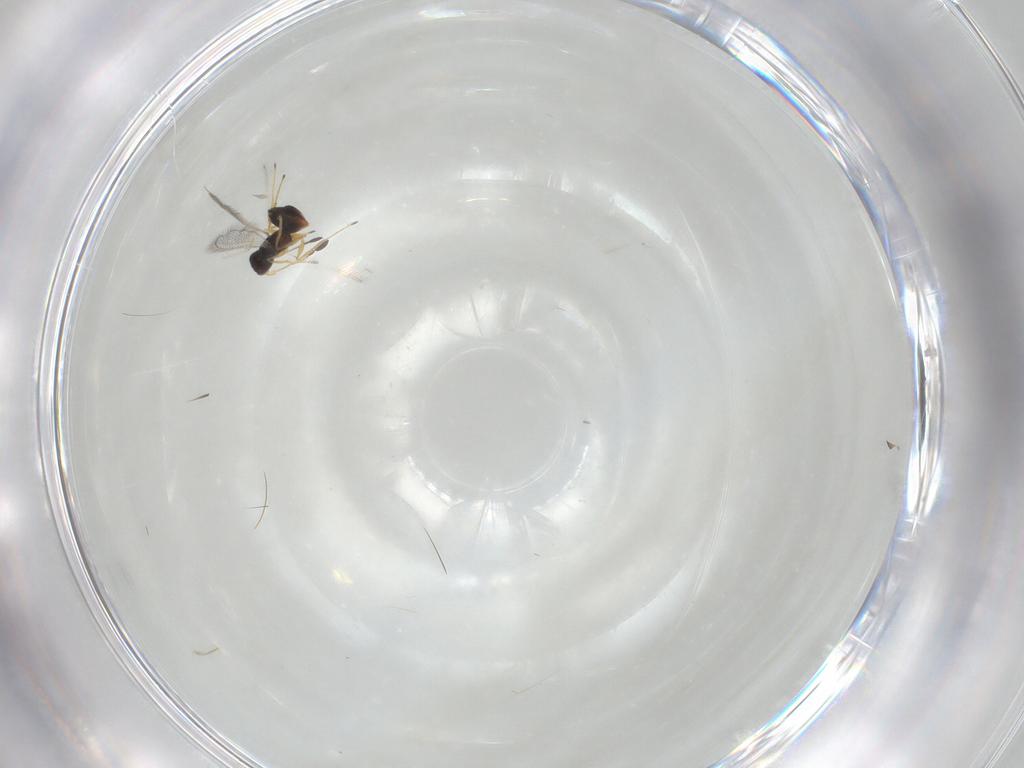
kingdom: Animalia
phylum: Arthropoda
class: Insecta
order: Hymenoptera
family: Mymaridae
